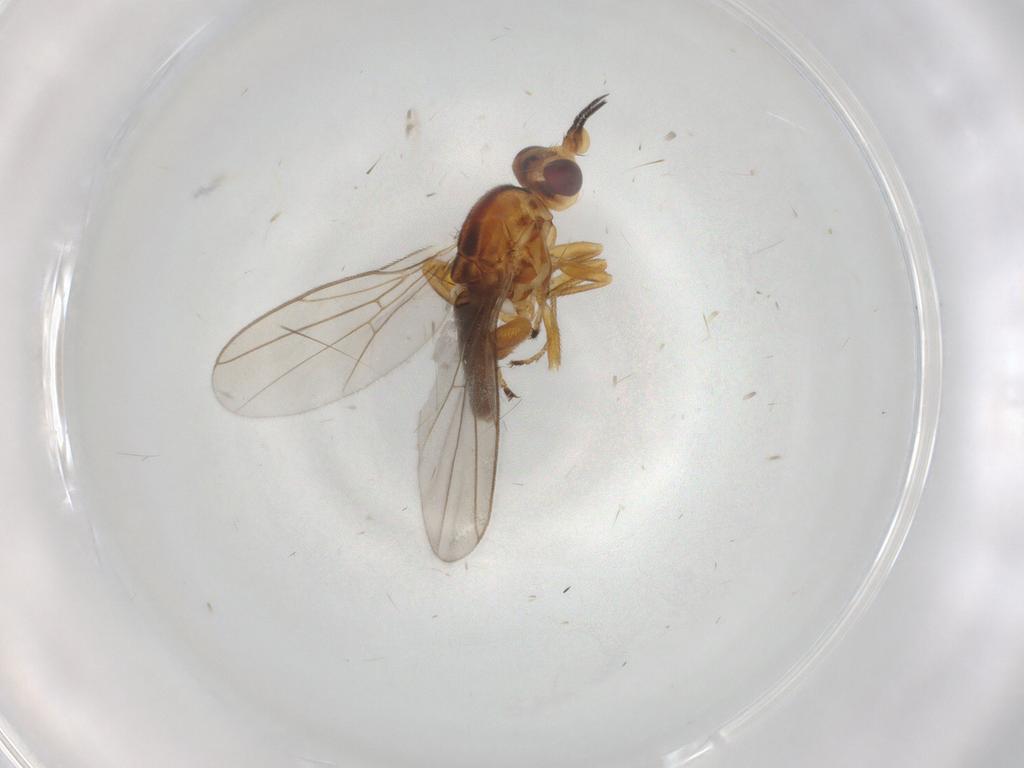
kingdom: Animalia
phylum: Arthropoda
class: Insecta
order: Diptera
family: Chloropidae
